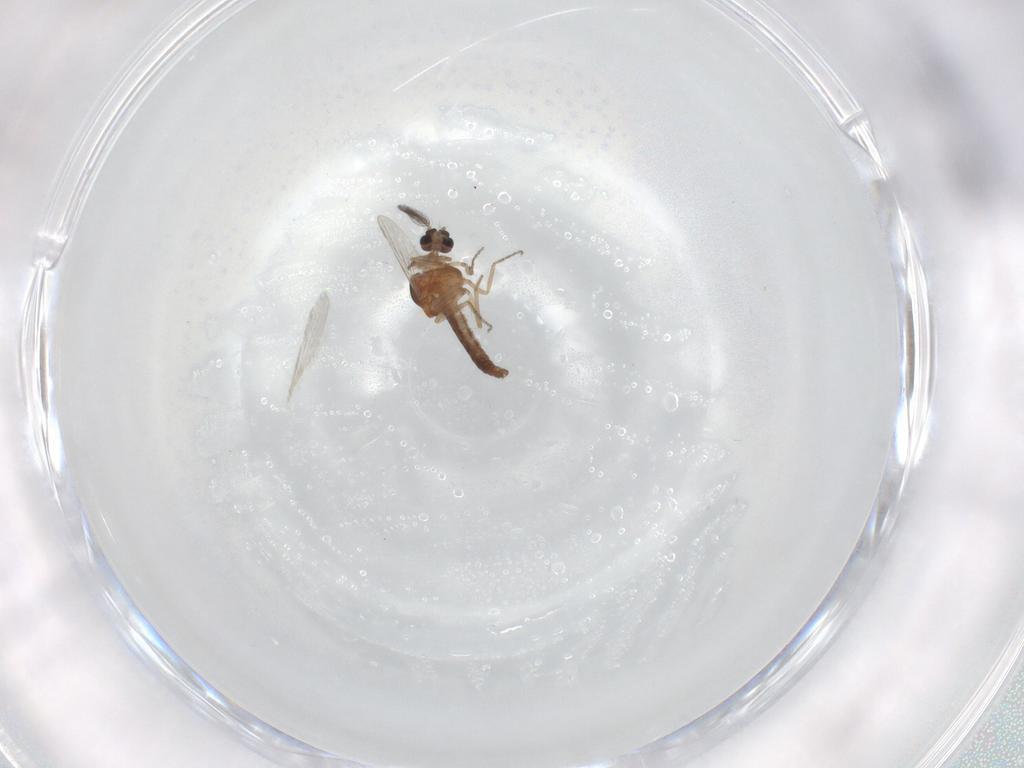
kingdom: Animalia
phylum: Arthropoda
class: Insecta
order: Diptera
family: Ceratopogonidae
